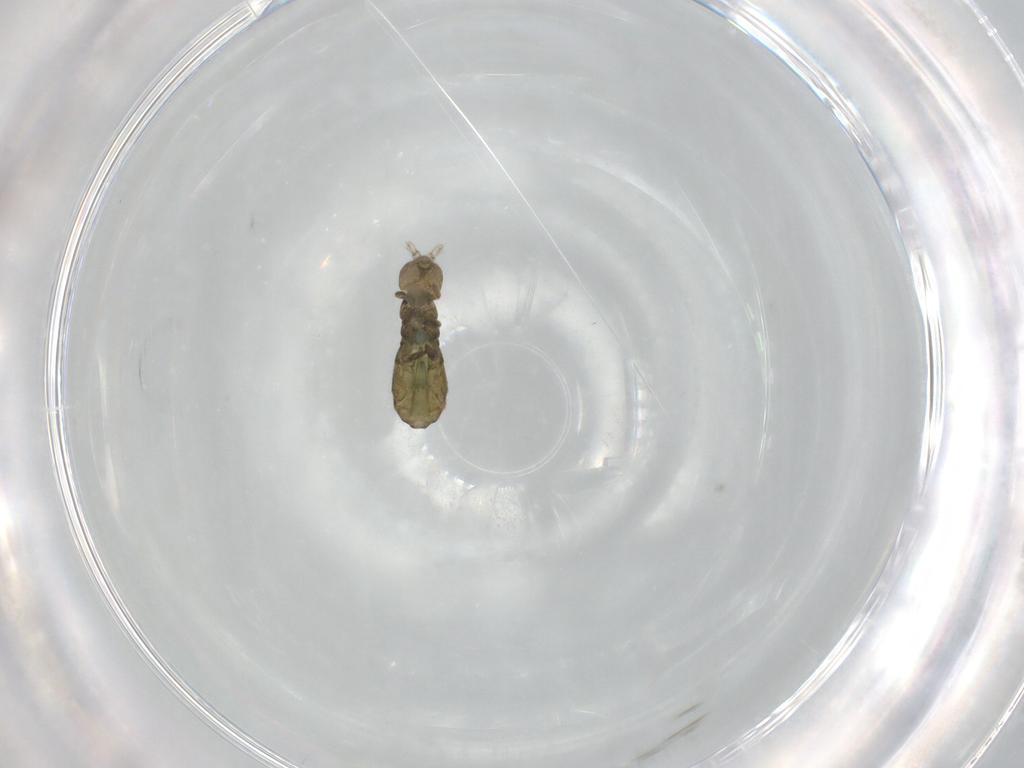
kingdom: Animalia
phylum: Arthropoda
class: Collembola
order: Entomobryomorpha
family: Isotomidae
